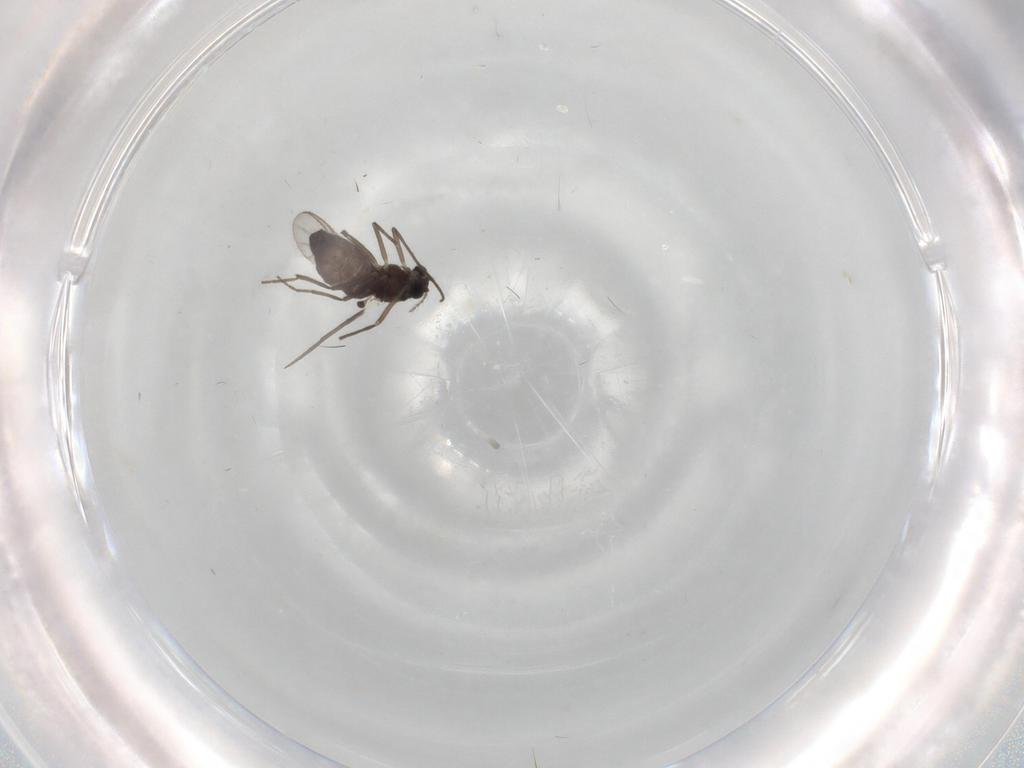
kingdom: Animalia
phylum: Arthropoda
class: Insecta
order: Diptera
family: Chironomidae
